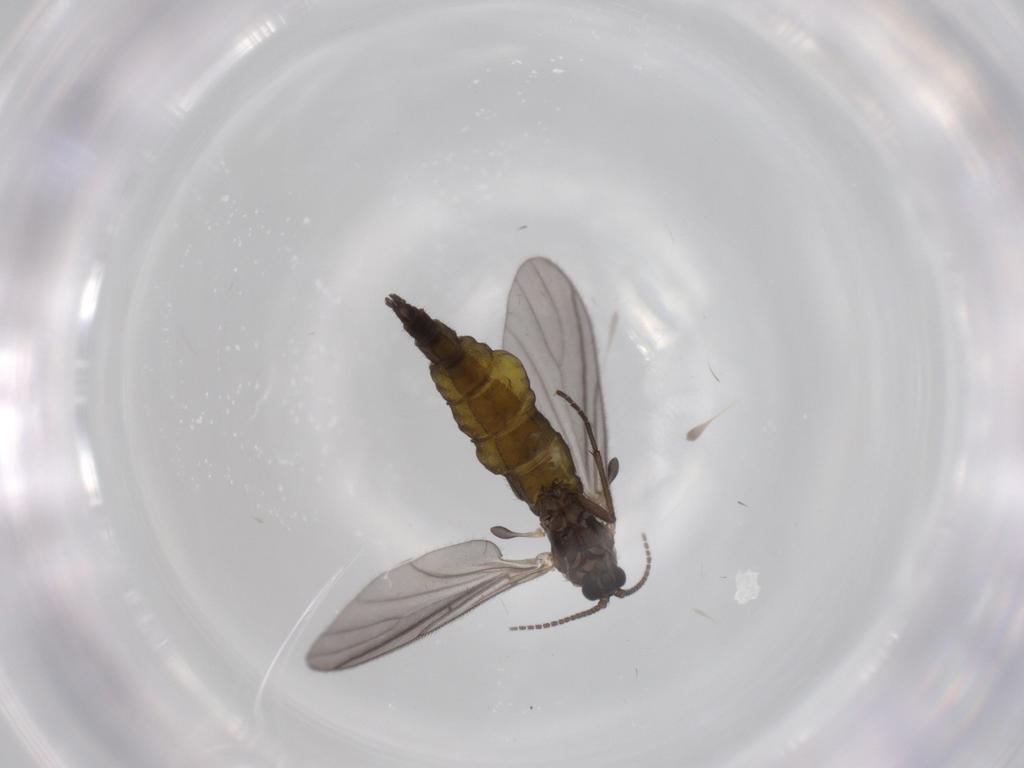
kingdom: Animalia
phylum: Arthropoda
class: Insecta
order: Diptera
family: Sciaridae
